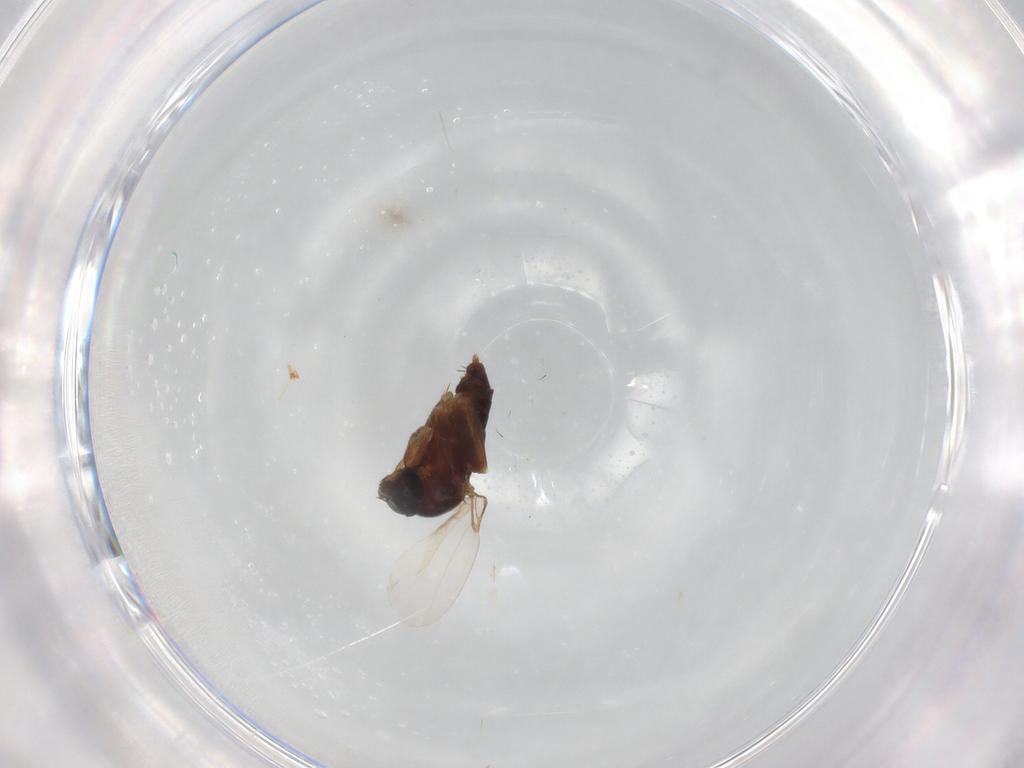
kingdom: Animalia
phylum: Arthropoda
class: Insecta
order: Diptera
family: Phoridae
